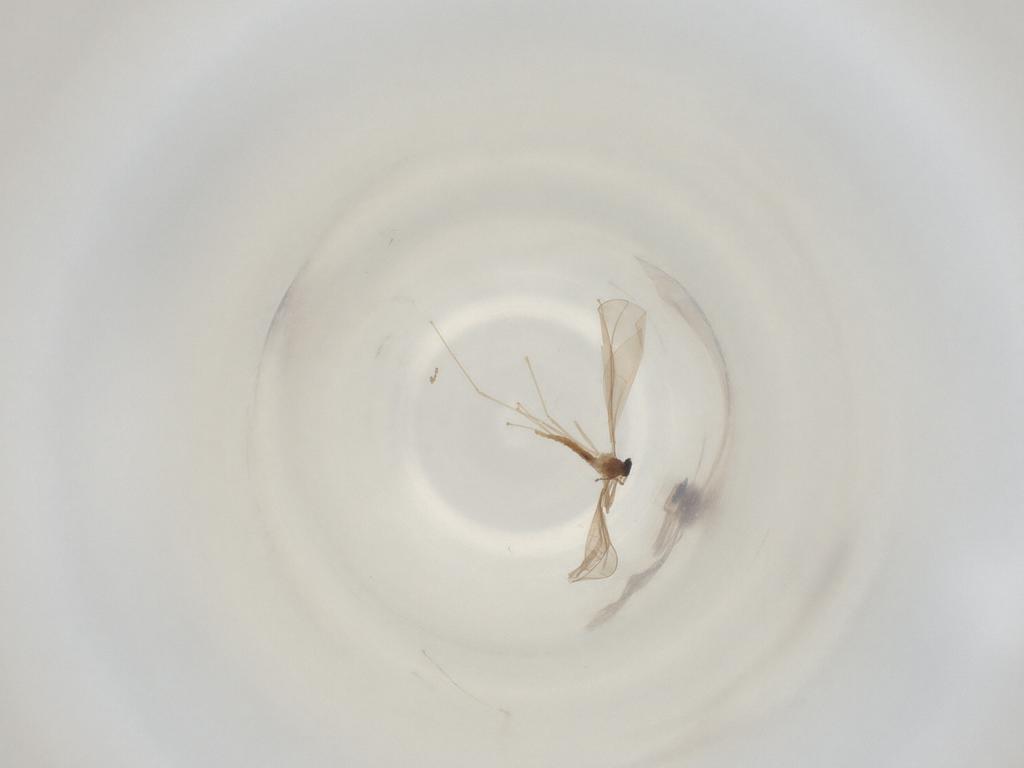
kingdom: Animalia
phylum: Arthropoda
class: Insecta
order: Diptera
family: Cecidomyiidae
